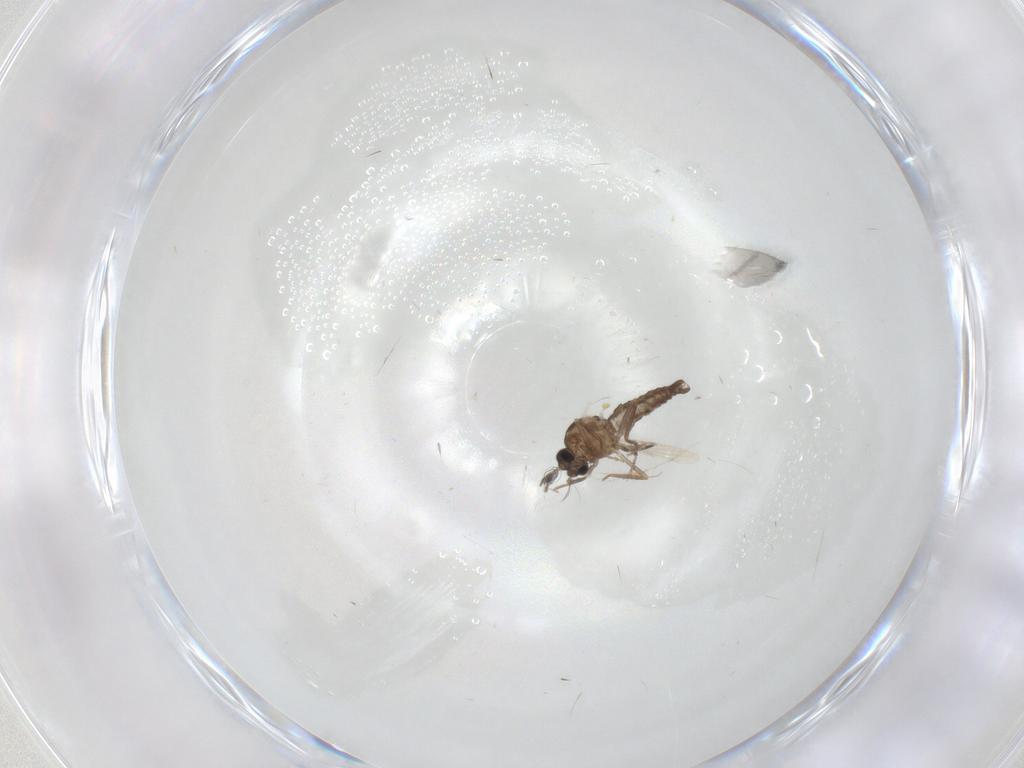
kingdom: Animalia
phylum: Arthropoda
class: Insecta
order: Diptera
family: Ceratopogonidae
